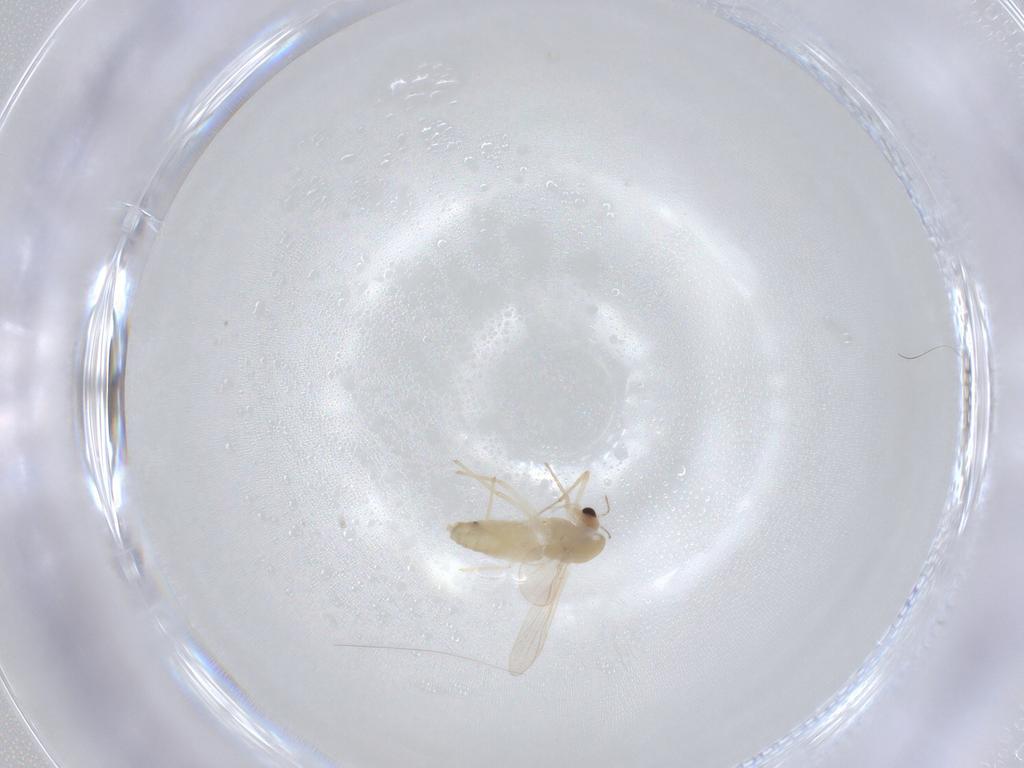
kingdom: Animalia
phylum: Arthropoda
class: Insecta
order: Diptera
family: Chironomidae
